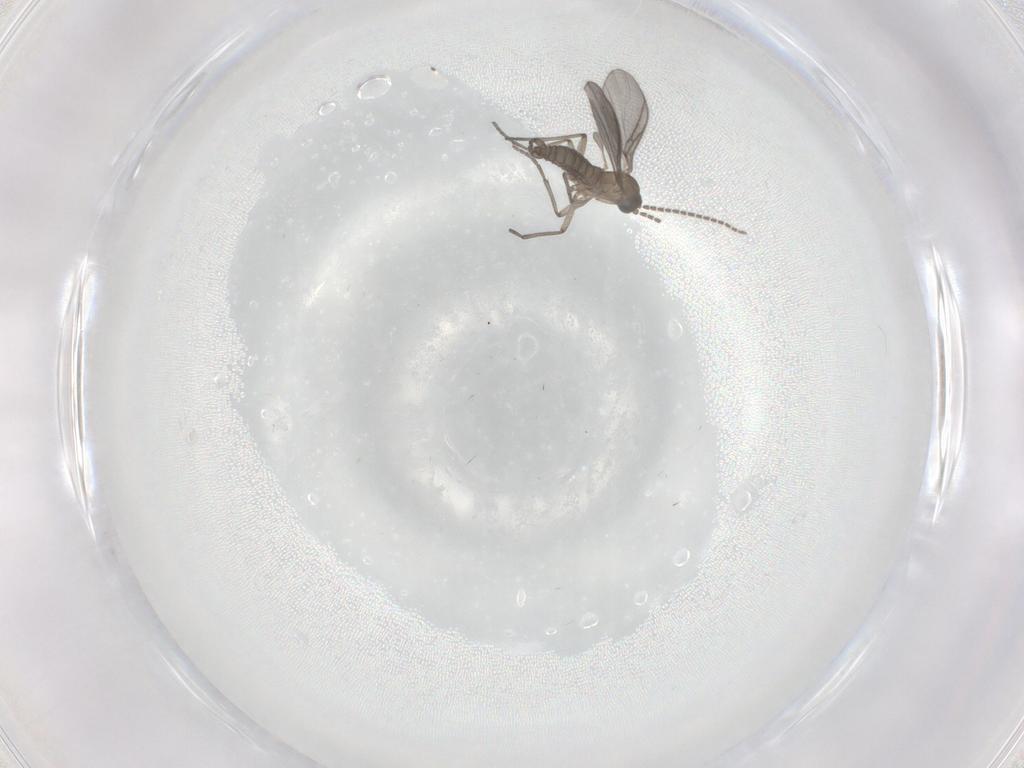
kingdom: Animalia
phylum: Arthropoda
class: Insecta
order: Diptera
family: Sciaridae
